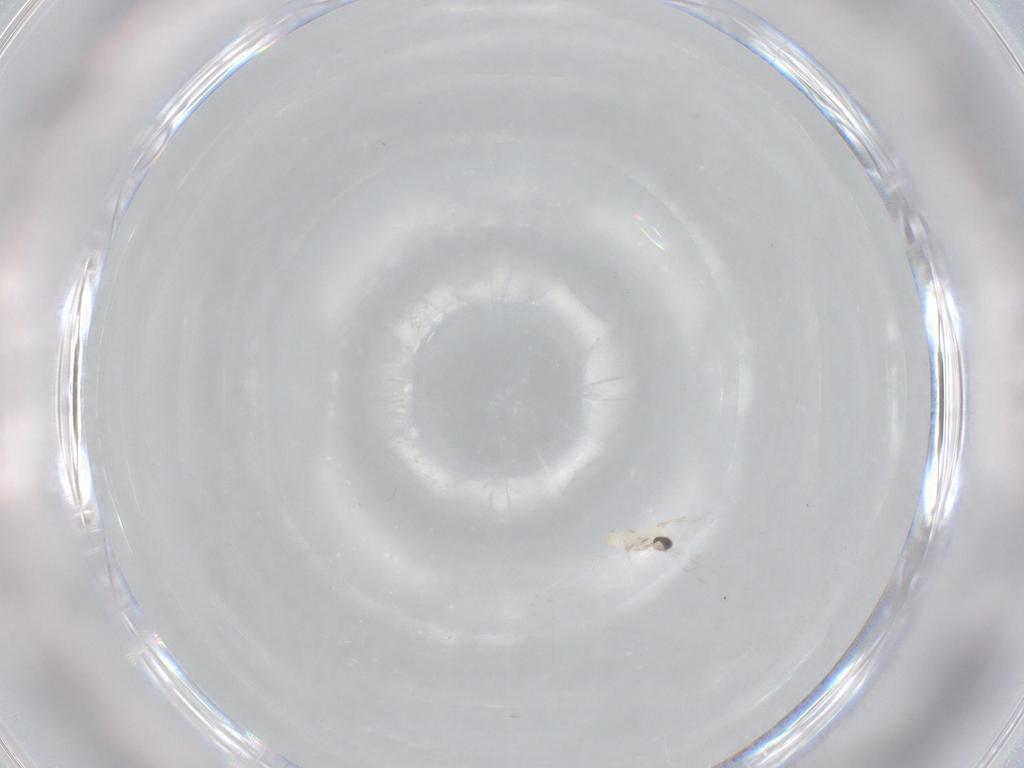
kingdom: Animalia
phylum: Arthropoda
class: Insecta
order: Diptera
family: Cecidomyiidae
